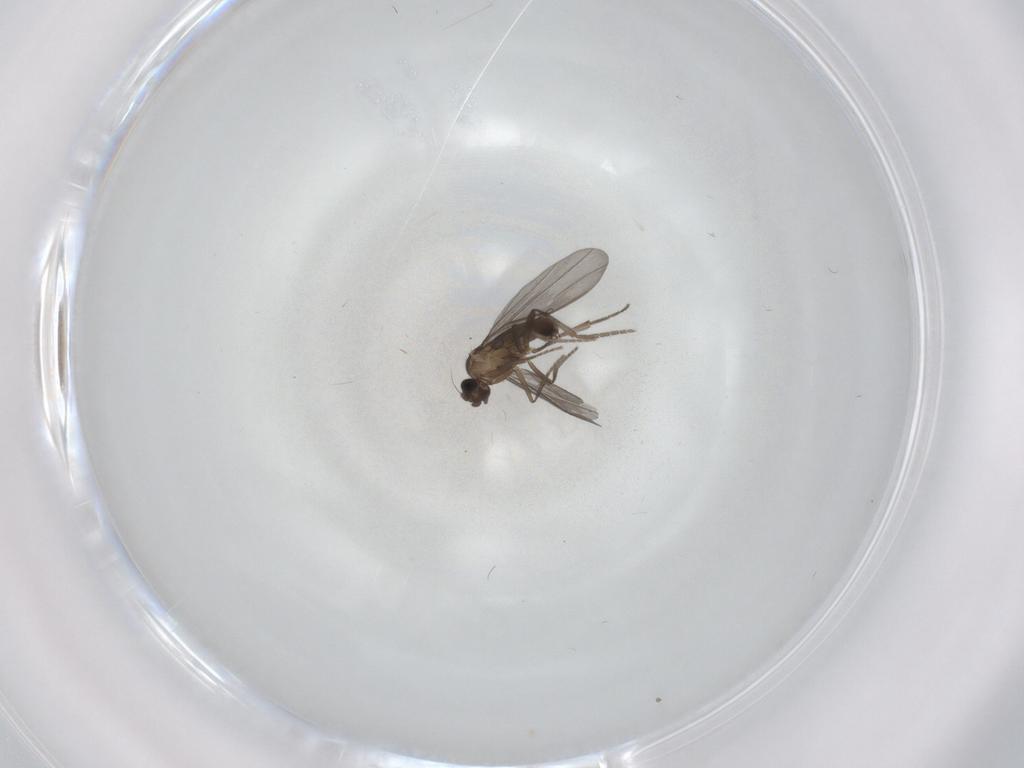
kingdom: Animalia
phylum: Arthropoda
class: Insecta
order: Diptera
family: Phoridae
